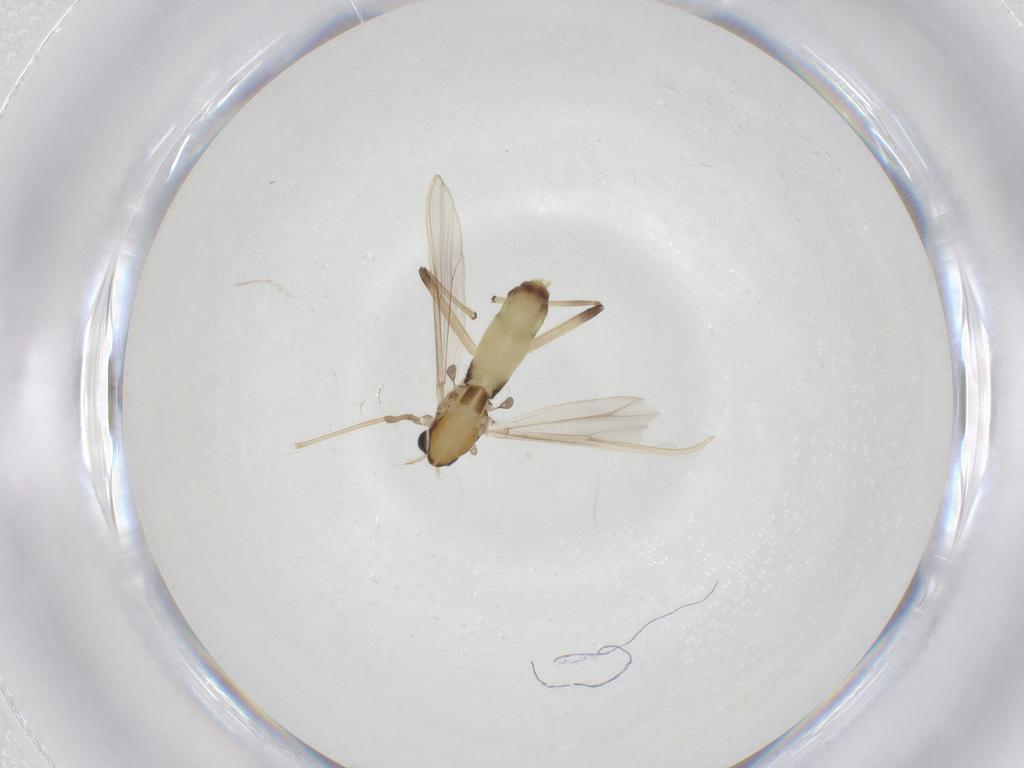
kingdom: Animalia
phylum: Arthropoda
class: Insecta
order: Diptera
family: Chironomidae
